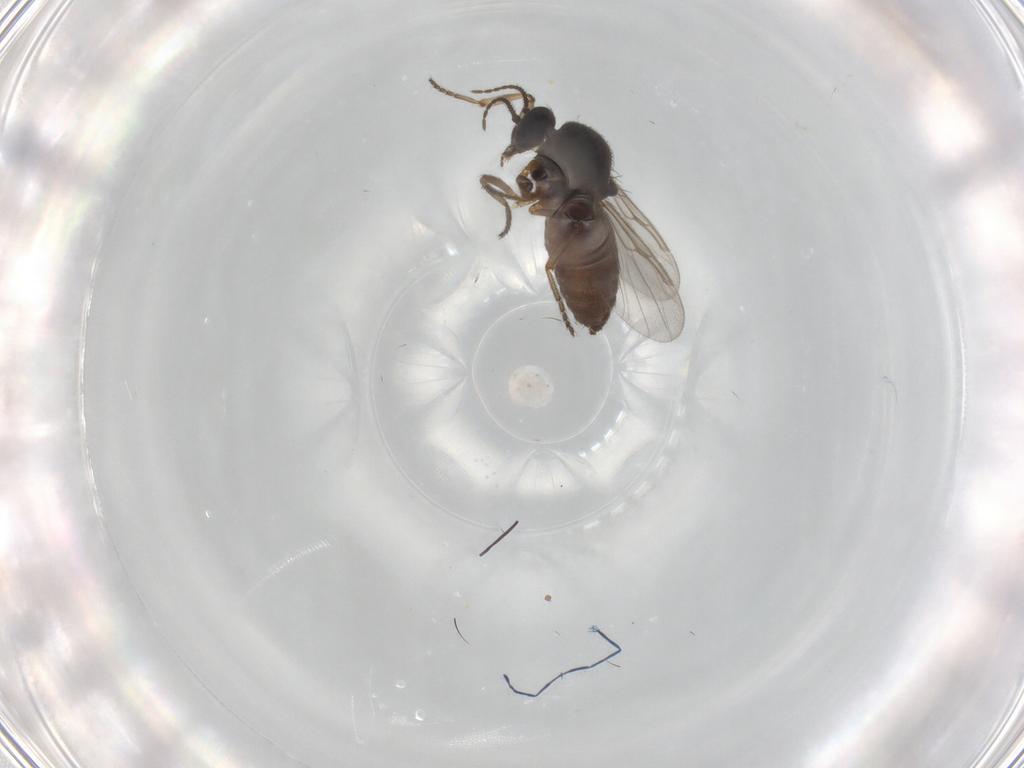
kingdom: Animalia
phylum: Arthropoda
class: Insecta
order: Diptera
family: Ceratopogonidae
